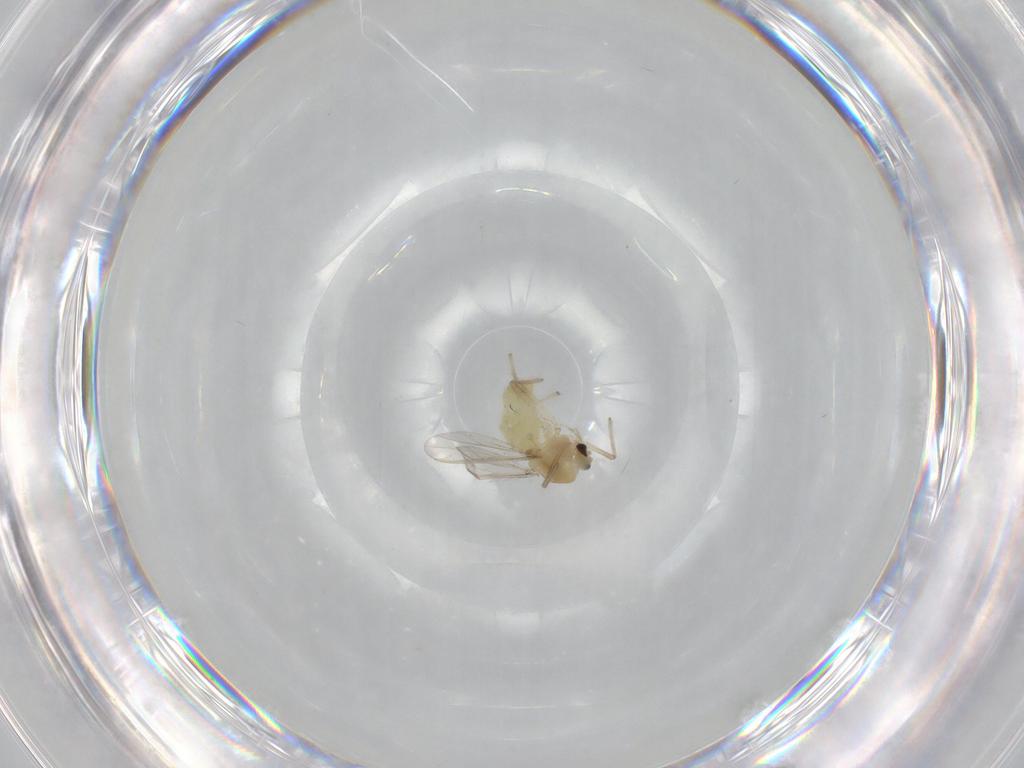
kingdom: Animalia
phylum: Arthropoda
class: Insecta
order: Diptera
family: Chironomidae
